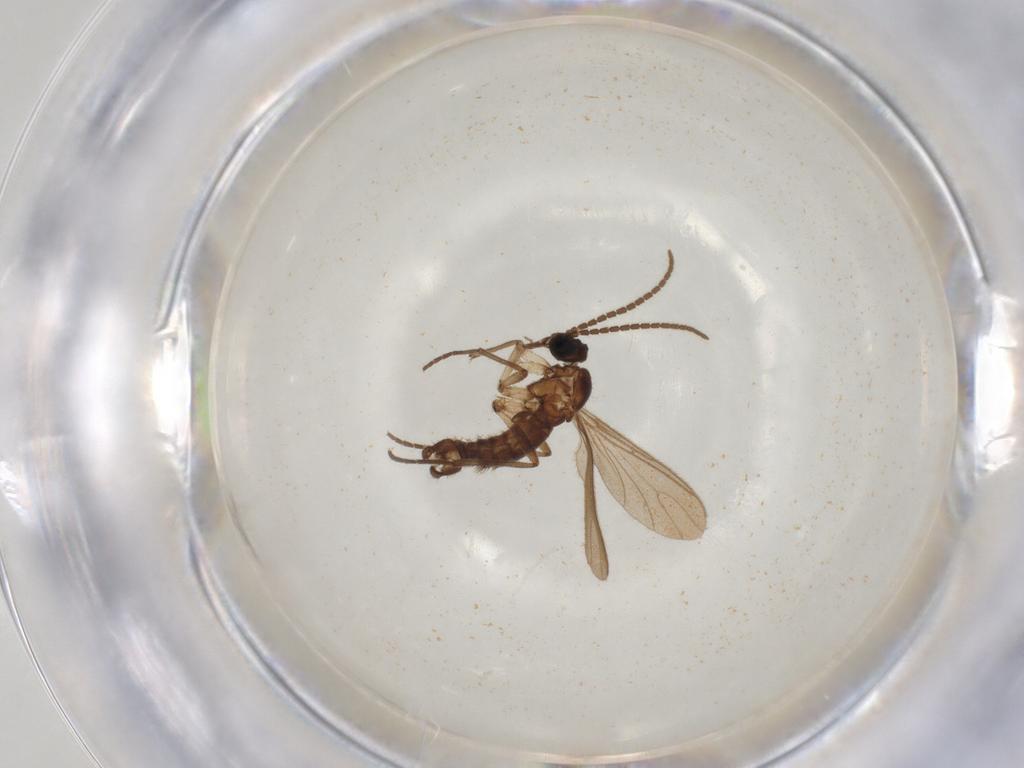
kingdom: Animalia
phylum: Arthropoda
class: Insecta
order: Diptera
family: Sciaridae
